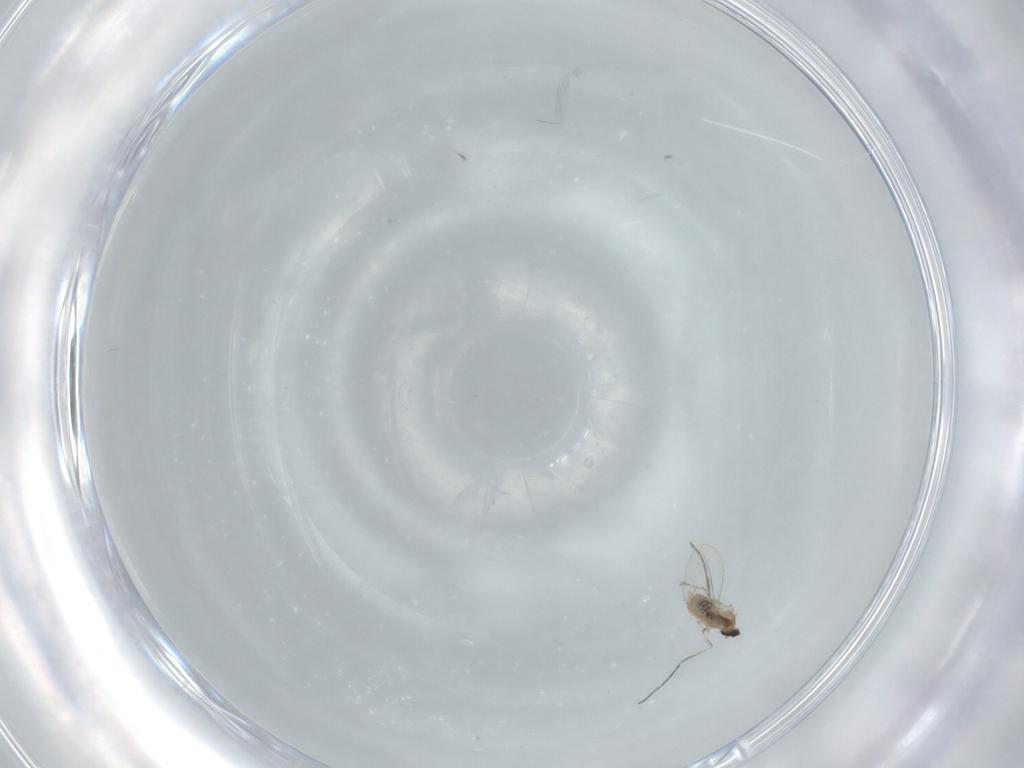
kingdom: Animalia
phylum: Arthropoda
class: Insecta
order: Diptera
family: Cecidomyiidae
